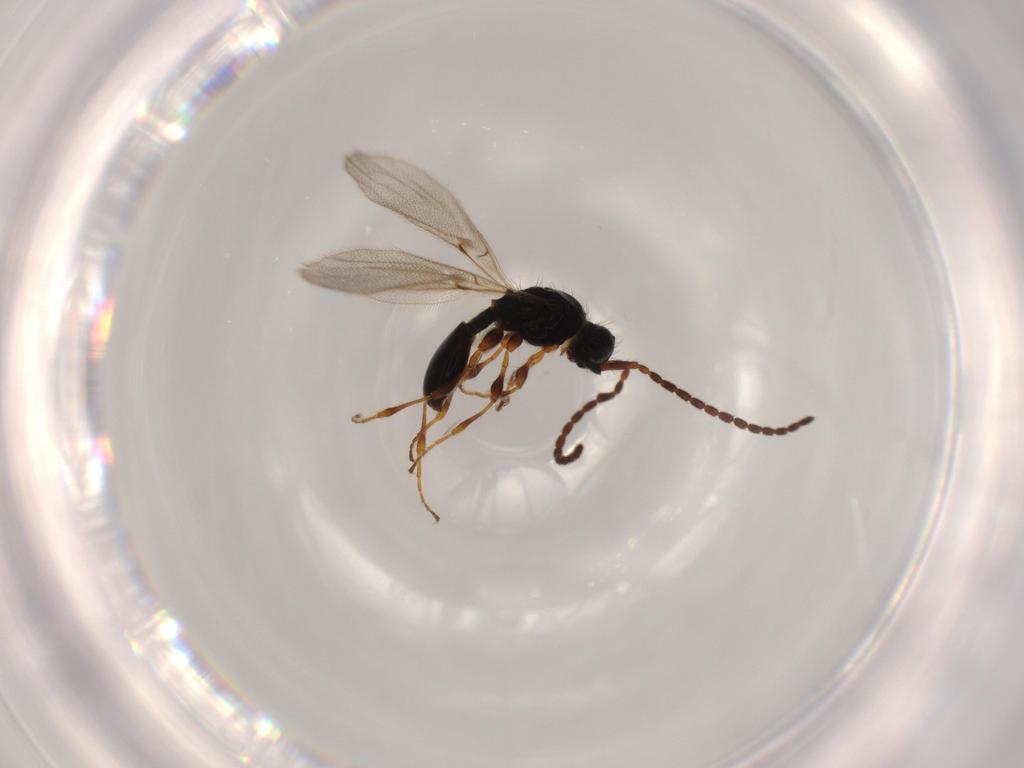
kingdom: Animalia
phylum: Arthropoda
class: Insecta
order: Hymenoptera
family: Diapriidae
